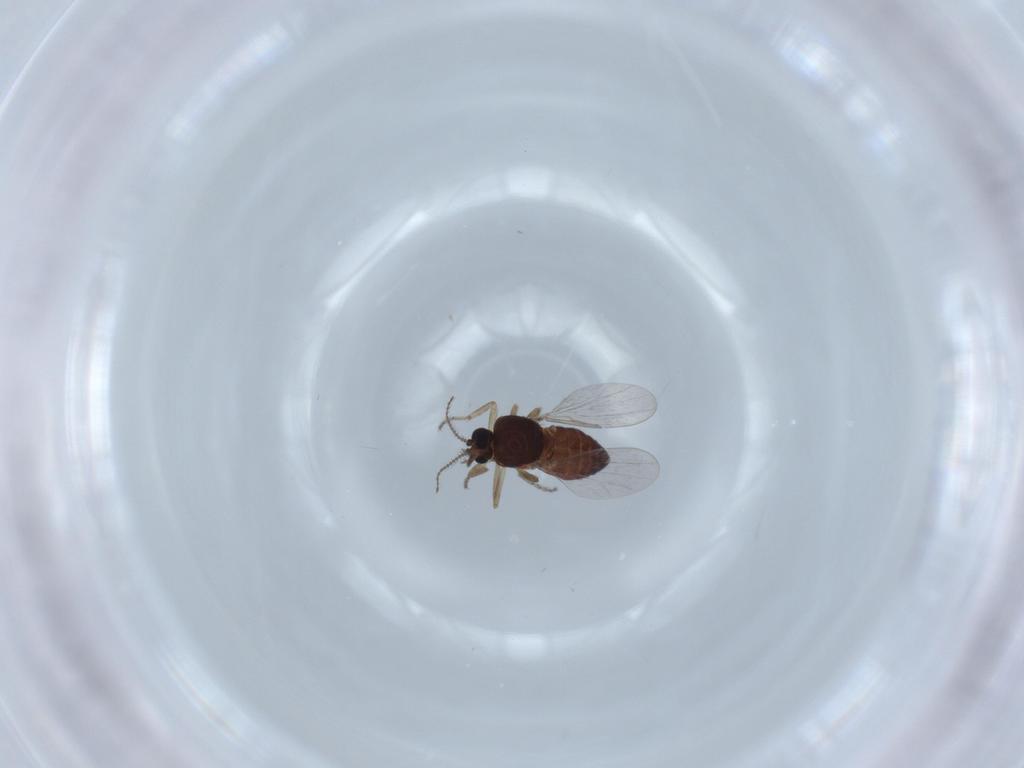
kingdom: Animalia
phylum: Arthropoda
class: Insecta
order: Diptera
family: Ceratopogonidae
